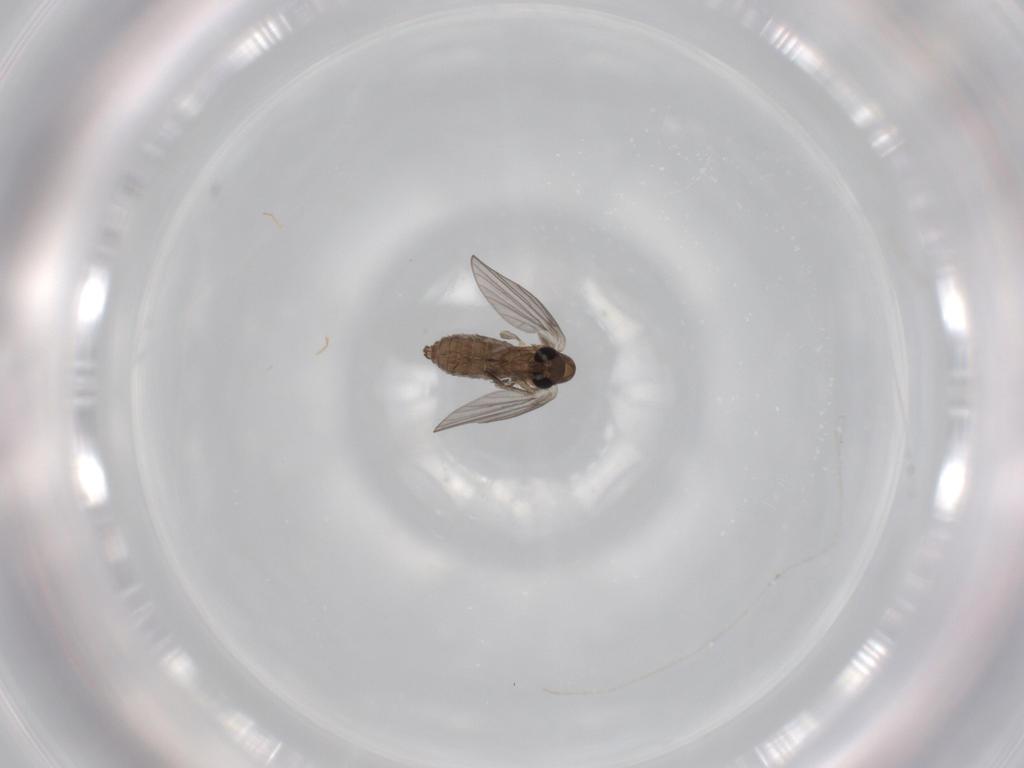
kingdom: Animalia
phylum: Arthropoda
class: Insecta
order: Diptera
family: Psychodidae
